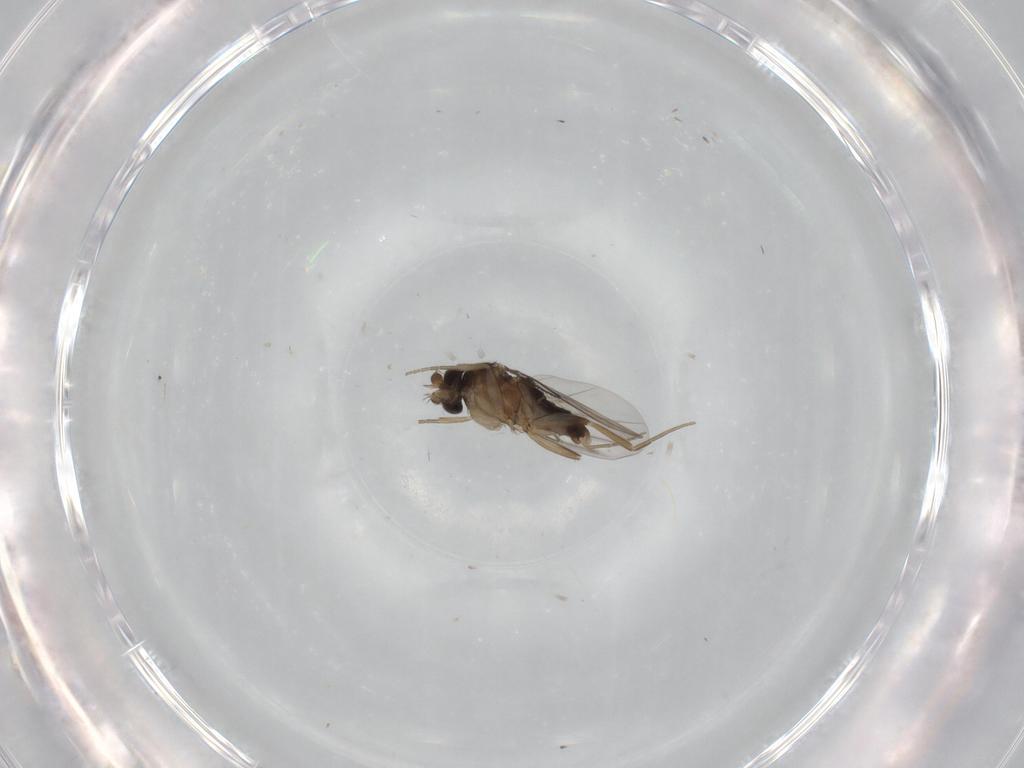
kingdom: Animalia
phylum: Arthropoda
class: Insecta
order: Diptera
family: Phoridae
